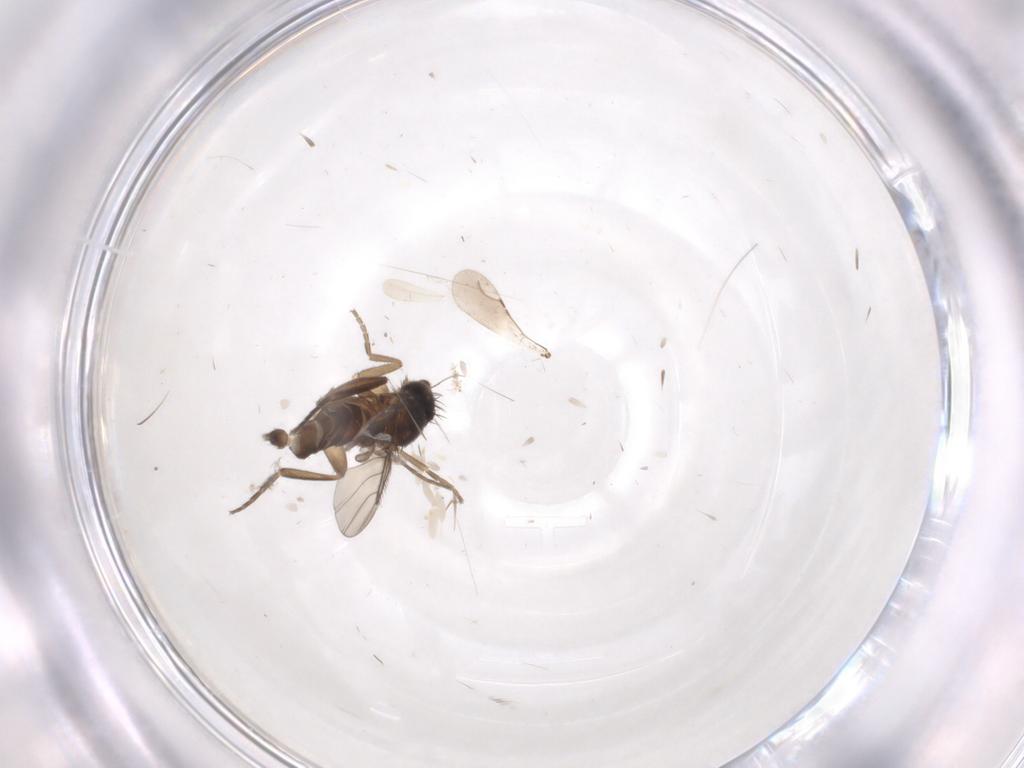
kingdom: Animalia
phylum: Arthropoda
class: Insecta
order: Diptera
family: Phoridae
